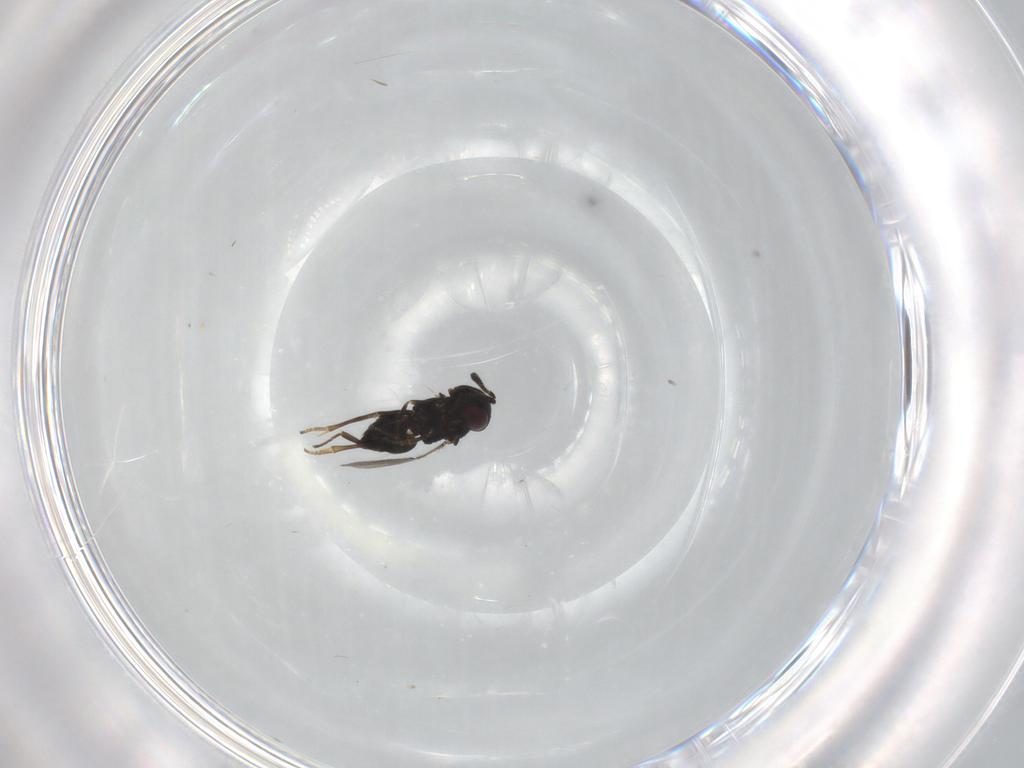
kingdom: Animalia
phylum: Arthropoda
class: Insecta
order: Hymenoptera
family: Encyrtidae
